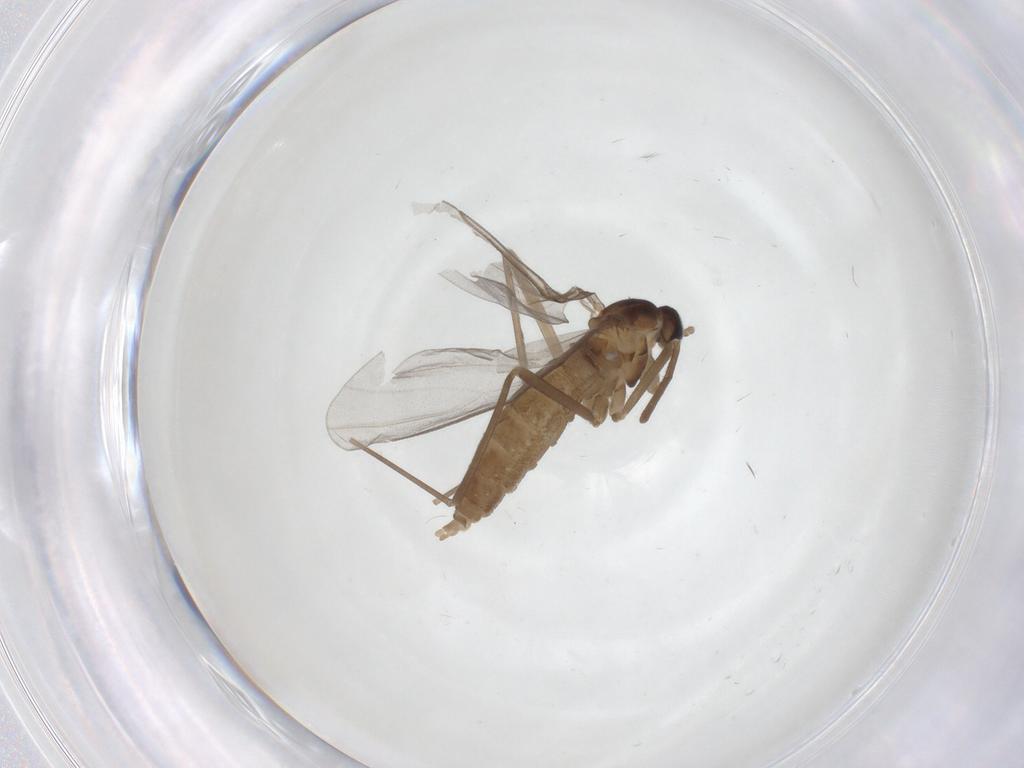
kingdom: Animalia
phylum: Arthropoda
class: Insecta
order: Diptera
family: Cecidomyiidae
